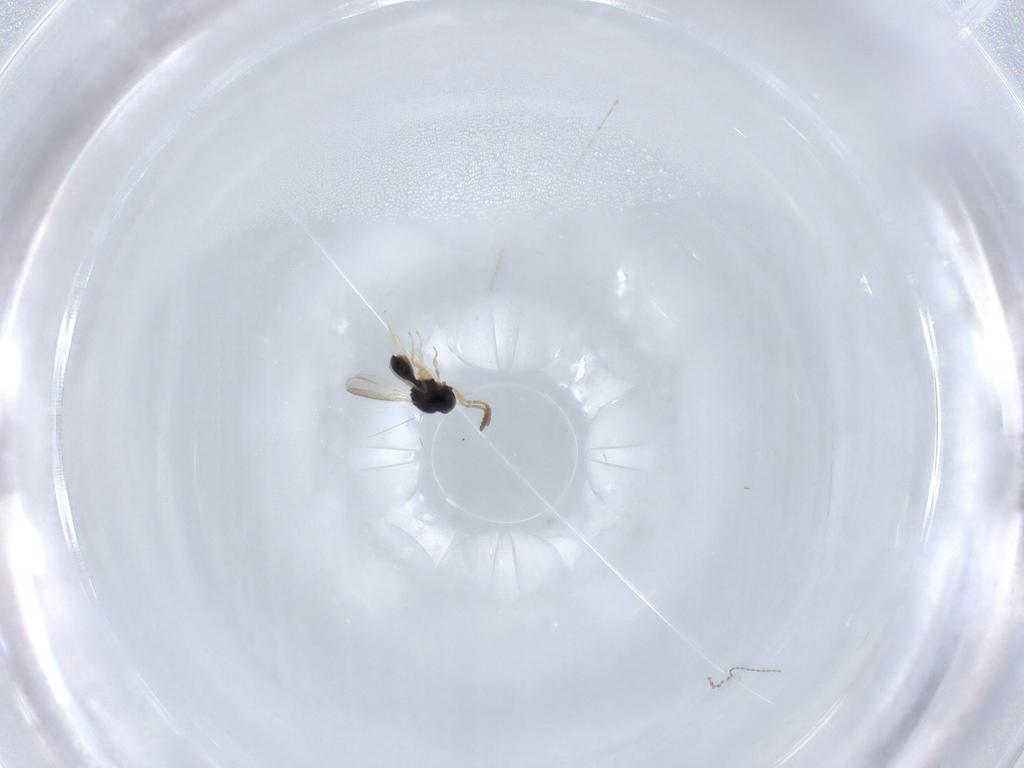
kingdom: Animalia
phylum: Arthropoda
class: Insecta
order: Hymenoptera
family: Scelionidae
